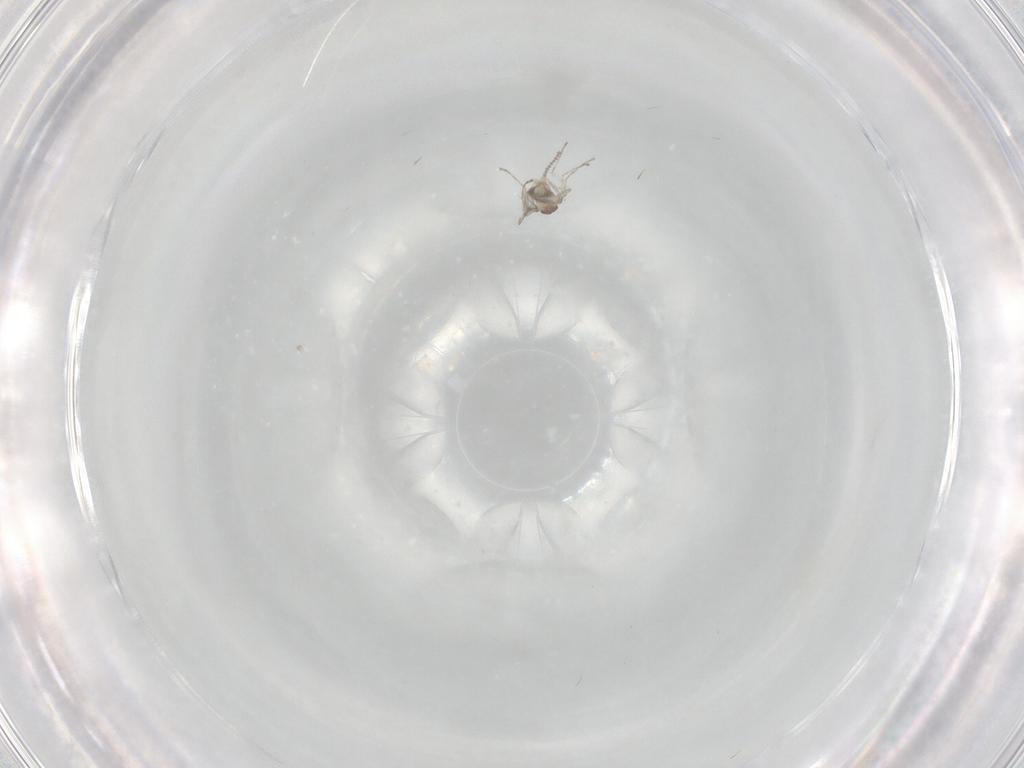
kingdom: Animalia
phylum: Arthropoda
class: Insecta
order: Diptera
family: Cecidomyiidae
